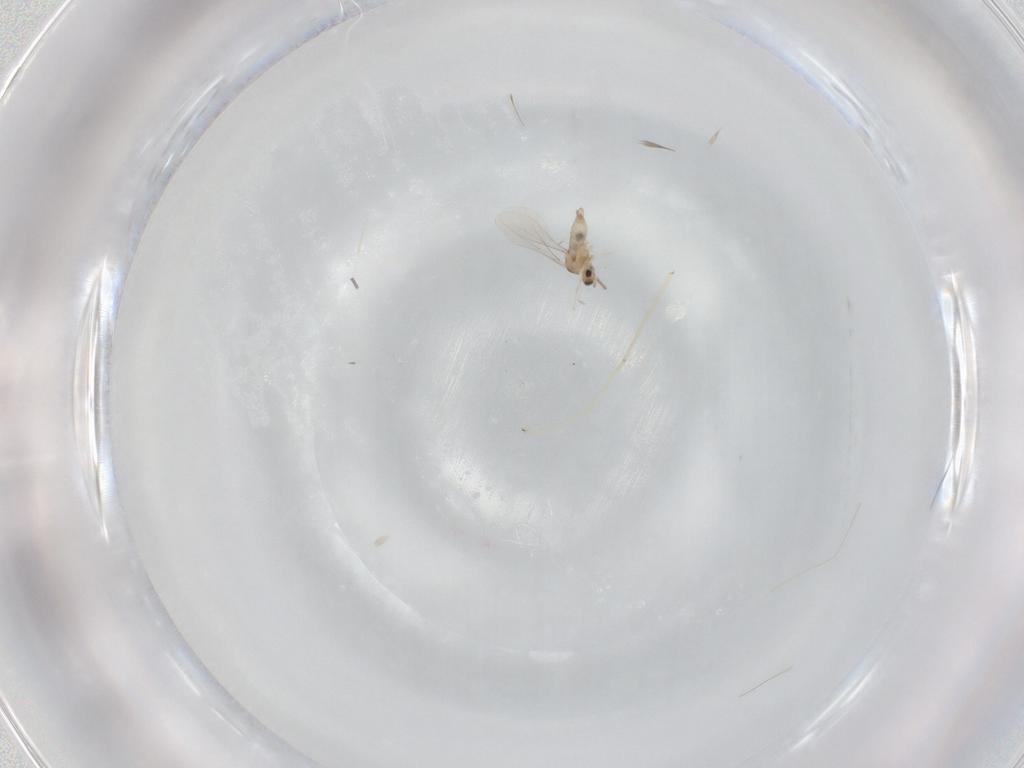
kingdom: Animalia
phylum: Arthropoda
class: Insecta
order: Diptera
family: Cecidomyiidae
